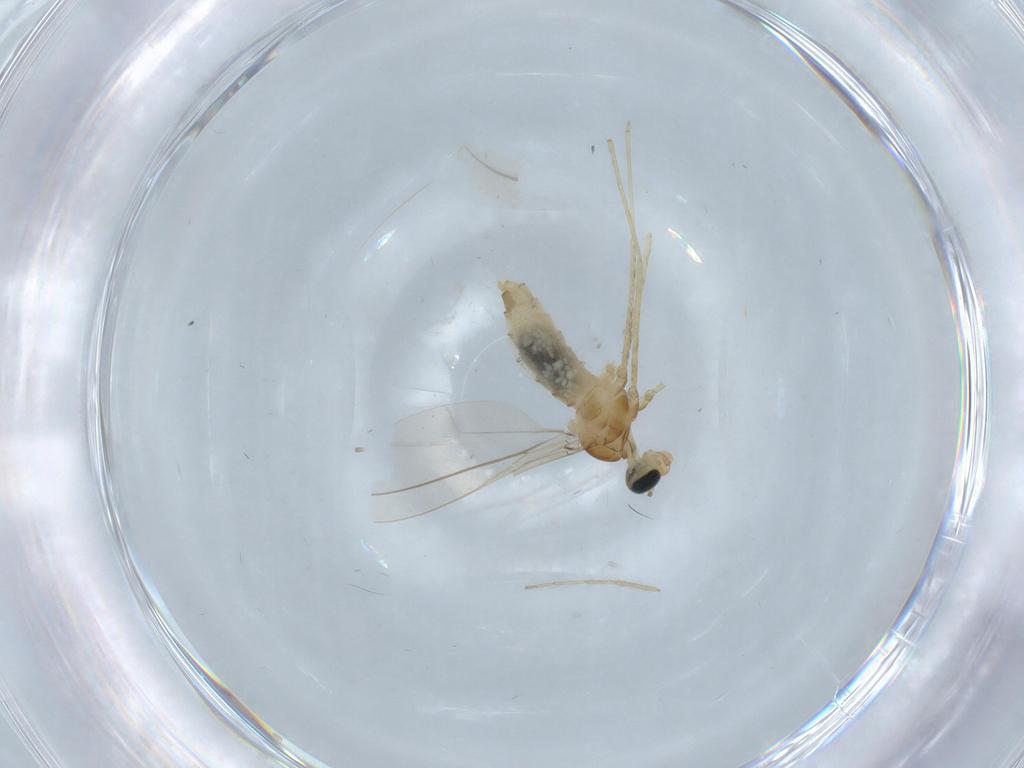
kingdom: Animalia
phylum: Arthropoda
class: Insecta
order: Diptera
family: Cecidomyiidae
